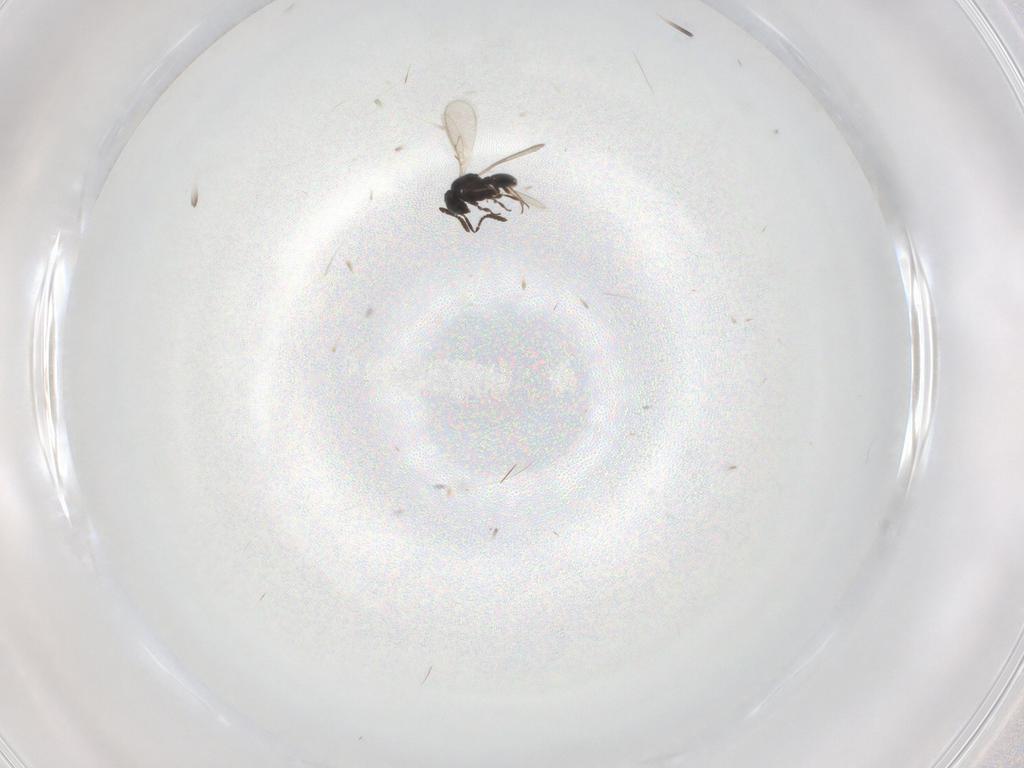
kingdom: Animalia
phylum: Arthropoda
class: Insecta
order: Hymenoptera
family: Scelionidae
